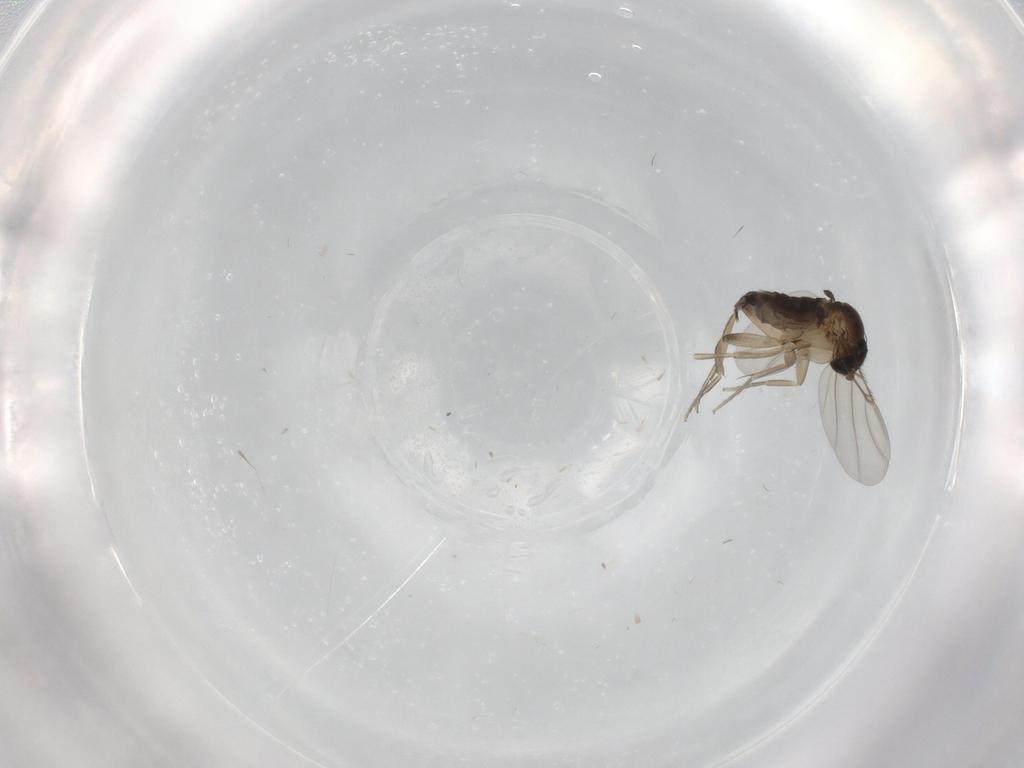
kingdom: Animalia
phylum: Arthropoda
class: Insecta
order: Diptera
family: Phoridae
